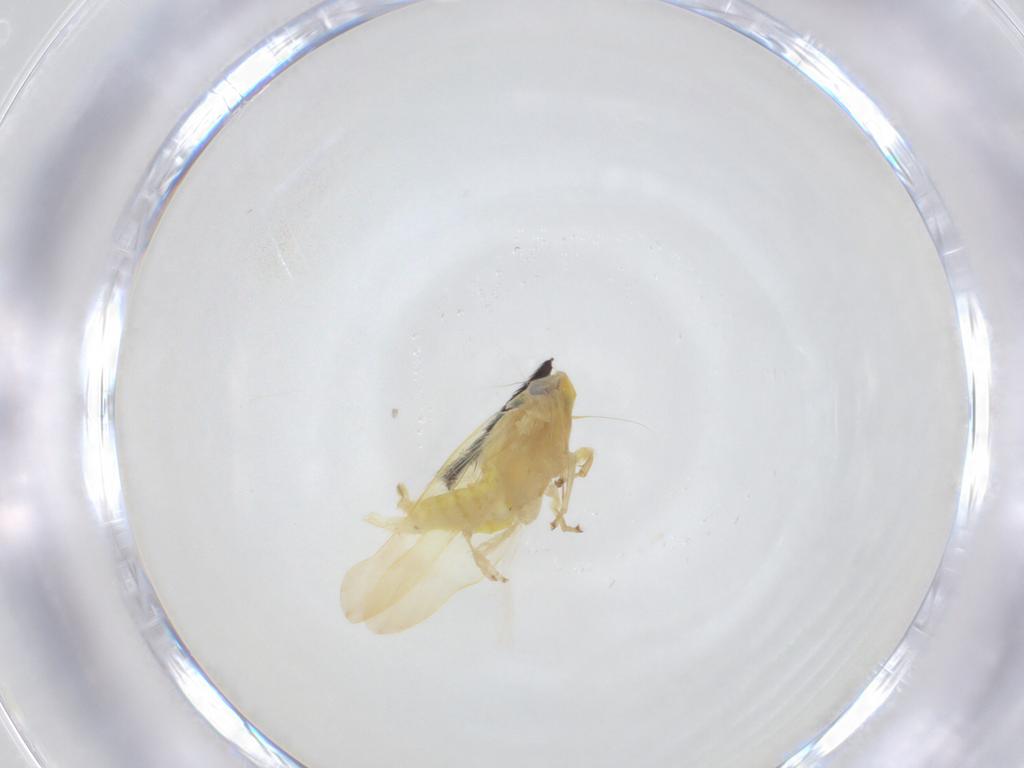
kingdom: Animalia
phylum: Arthropoda
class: Insecta
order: Hemiptera
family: Cicadellidae
